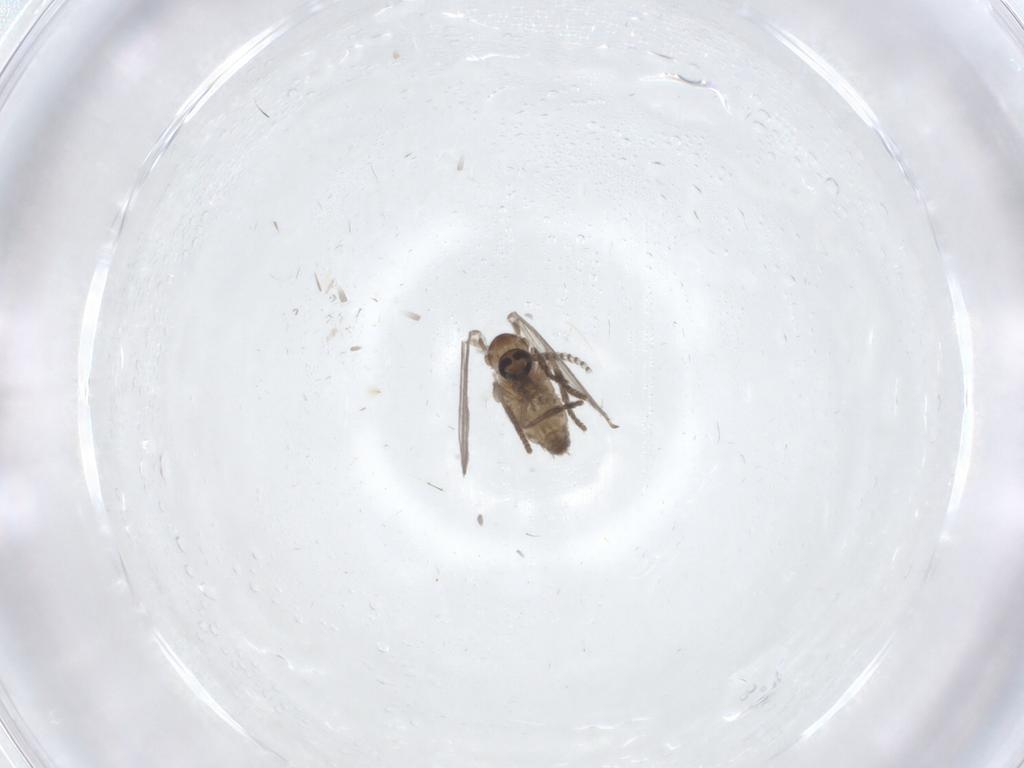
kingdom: Animalia
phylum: Arthropoda
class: Insecta
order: Diptera
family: Psychodidae
